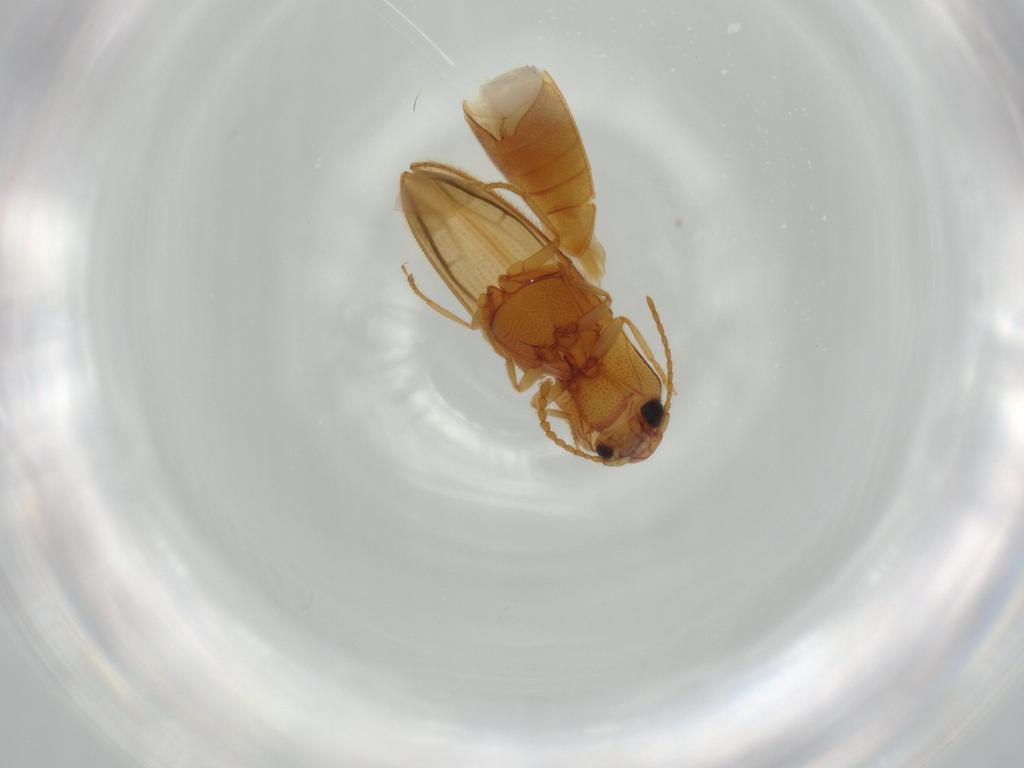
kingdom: Animalia
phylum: Arthropoda
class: Insecta
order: Coleoptera
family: Elateridae
